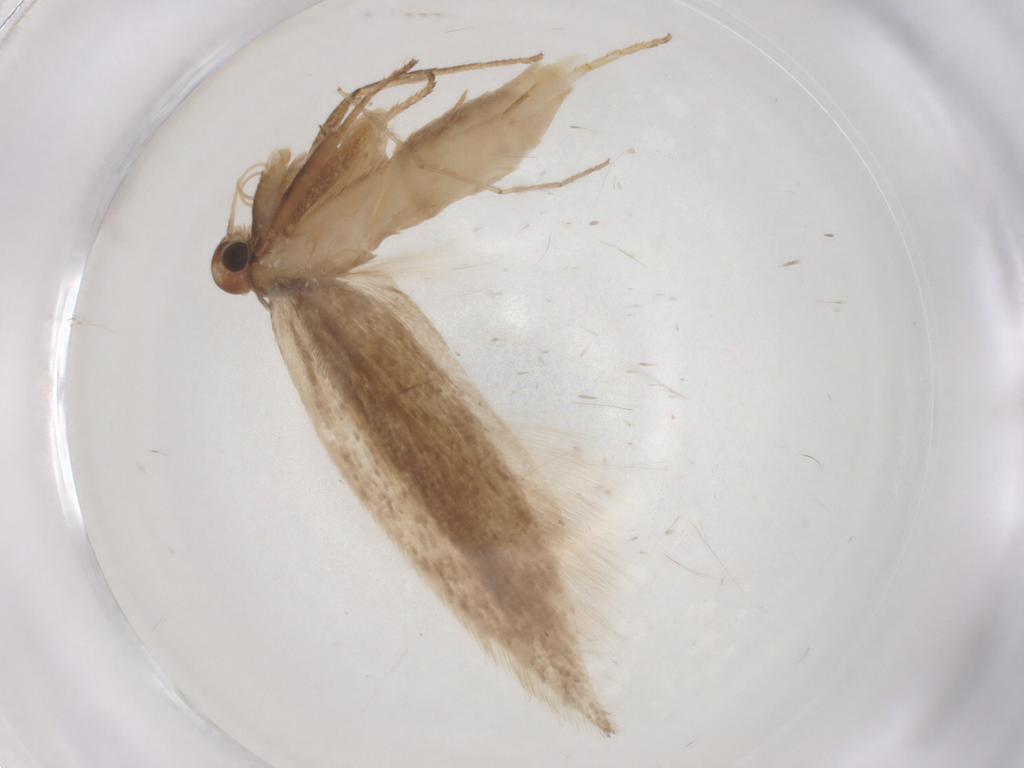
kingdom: Animalia
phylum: Arthropoda
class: Insecta
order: Lepidoptera
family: Gelechiidae
